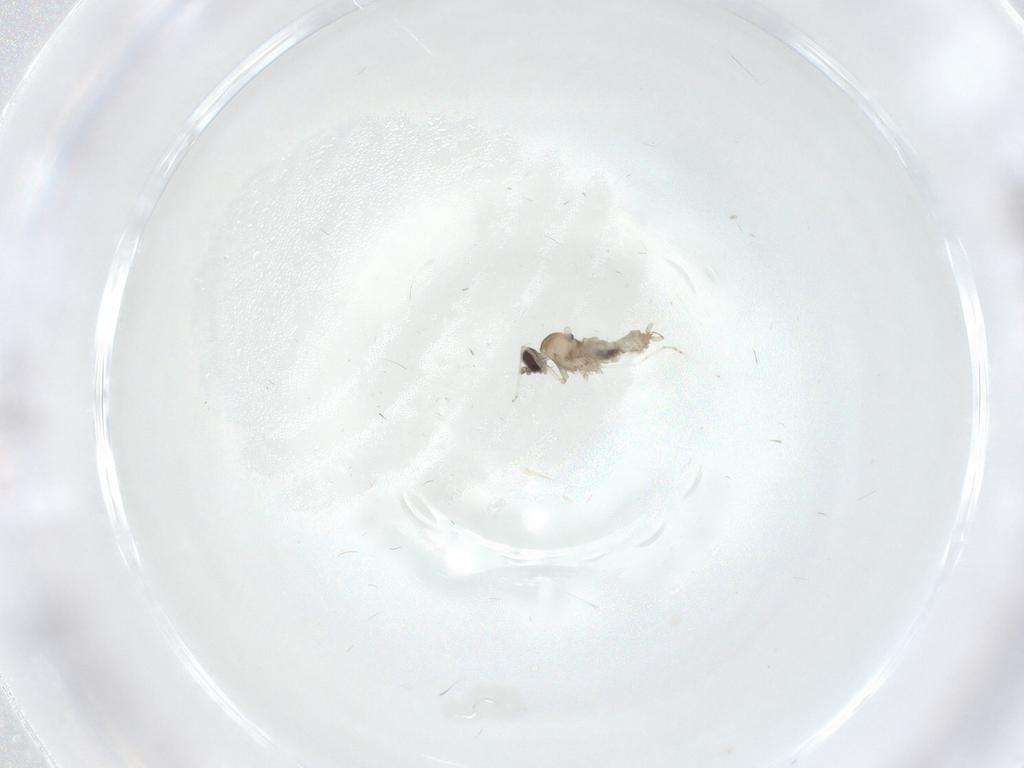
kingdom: Animalia
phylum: Arthropoda
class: Insecta
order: Diptera
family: Cecidomyiidae
